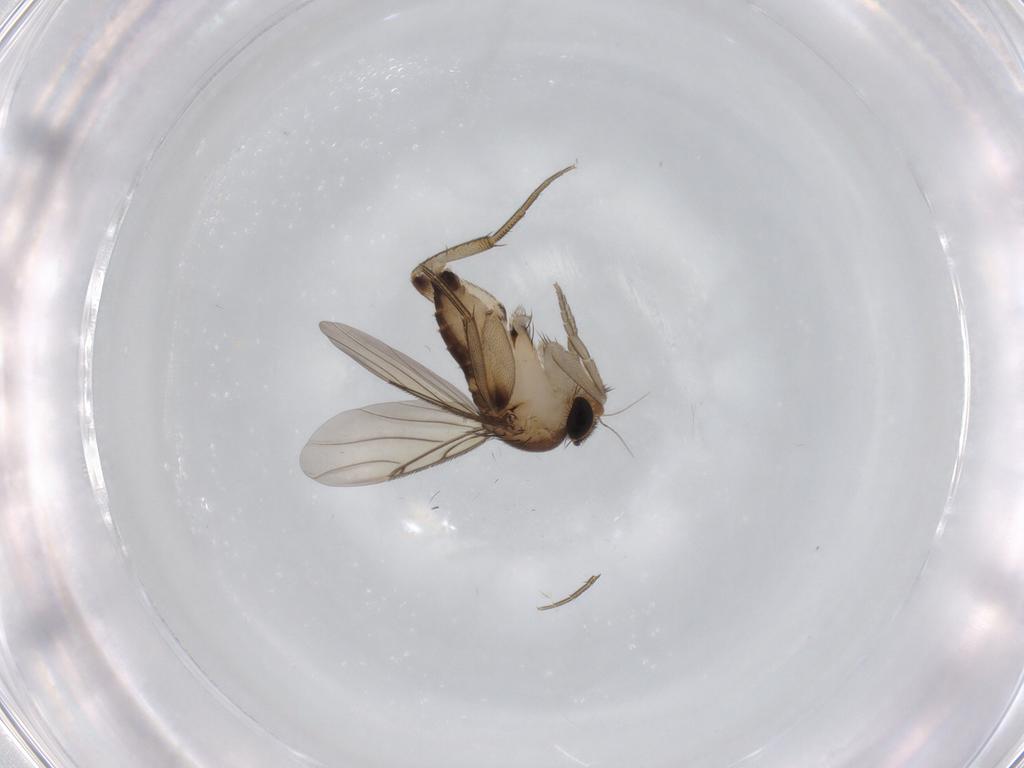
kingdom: Animalia
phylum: Arthropoda
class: Insecta
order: Diptera
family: Phoridae
